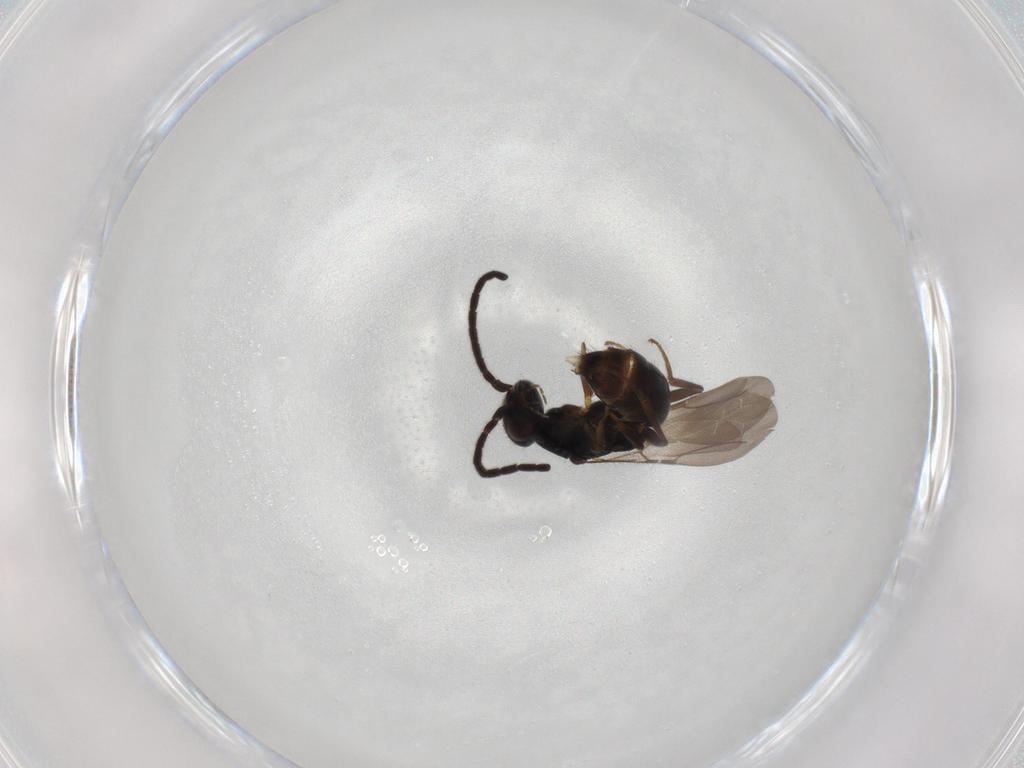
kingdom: Animalia
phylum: Arthropoda
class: Insecta
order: Hymenoptera
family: Bethylidae
